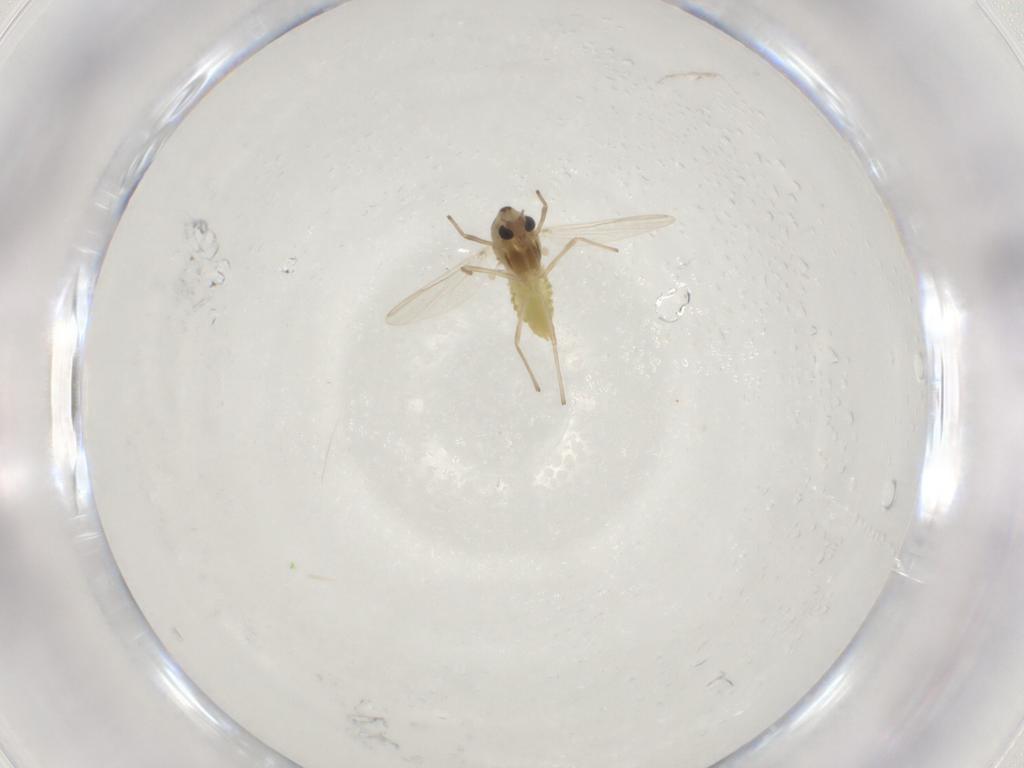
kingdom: Animalia
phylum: Arthropoda
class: Insecta
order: Diptera
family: Chironomidae
